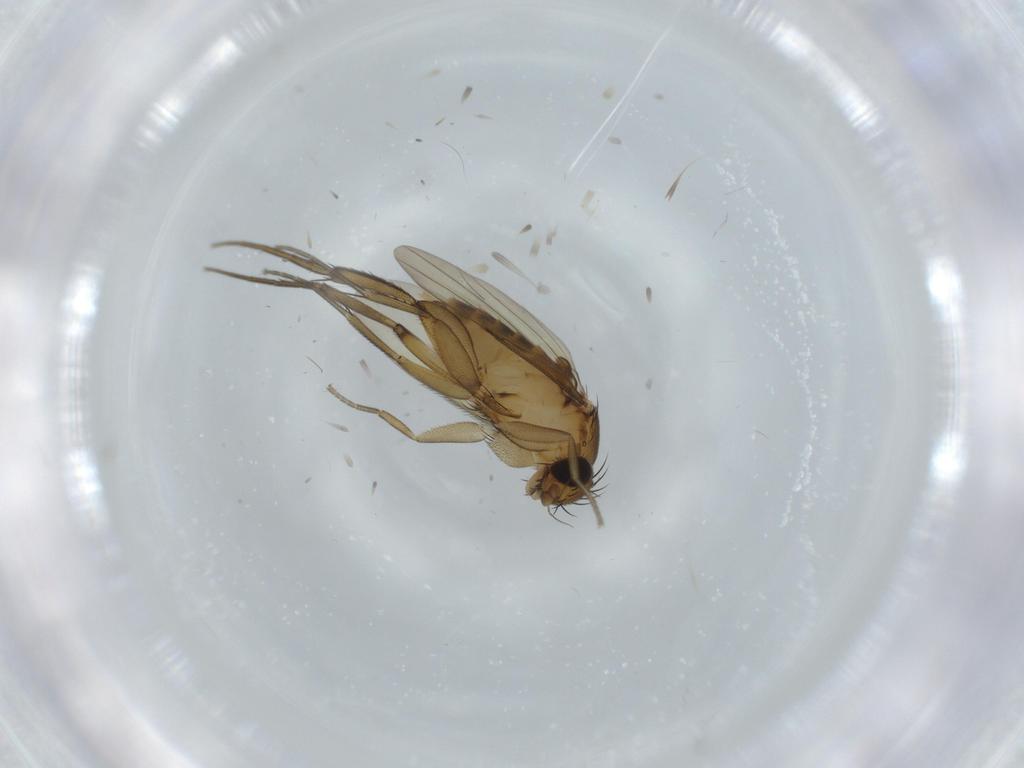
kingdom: Animalia
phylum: Arthropoda
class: Insecta
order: Diptera
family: Phoridae
